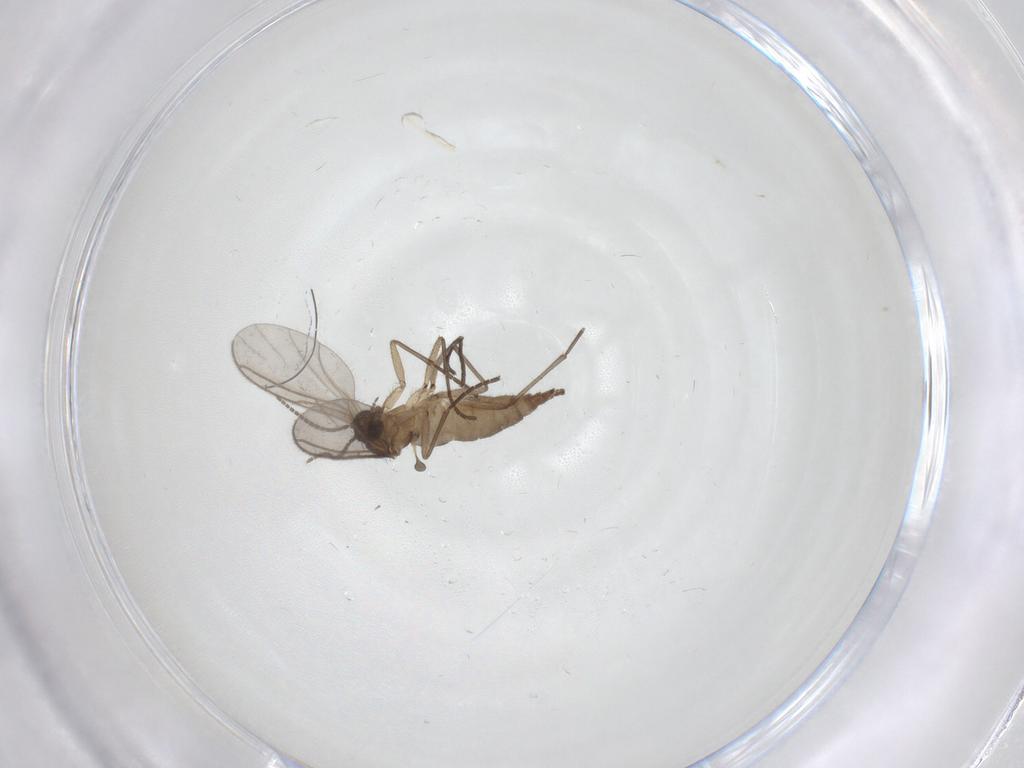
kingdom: Animalia
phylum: Arthropoda
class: Insecta
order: Diptera
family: Sciaridae
